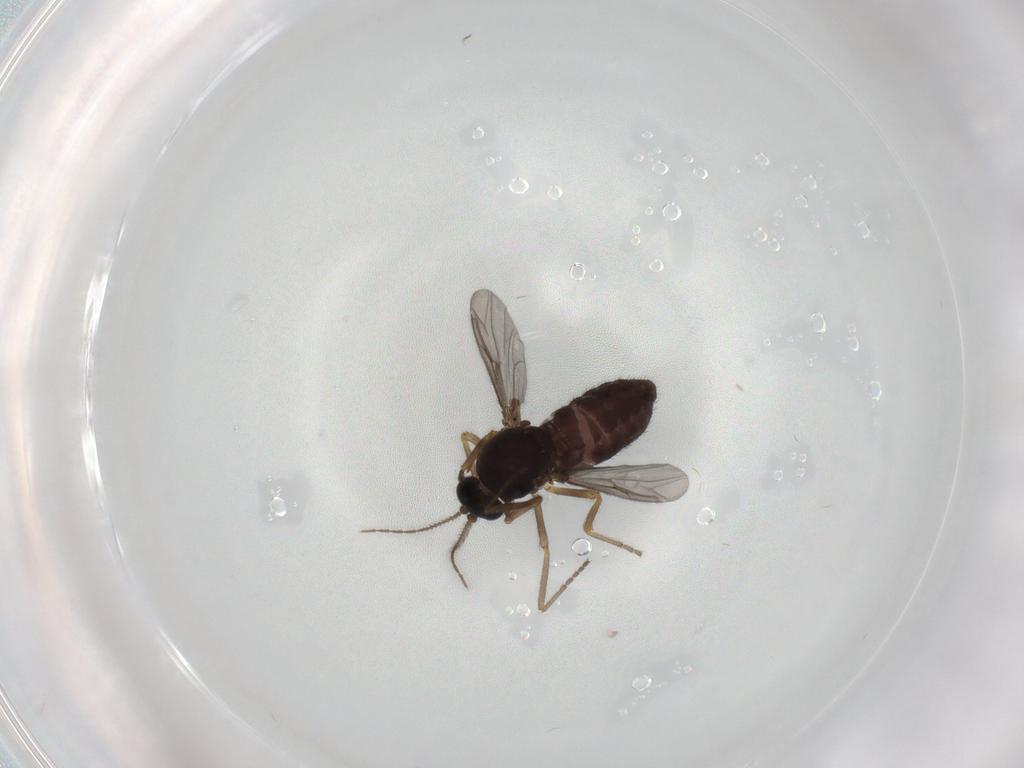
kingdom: Animalia
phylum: Arthropoda
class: Insecta
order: Diptera
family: Ceratopogonidae
